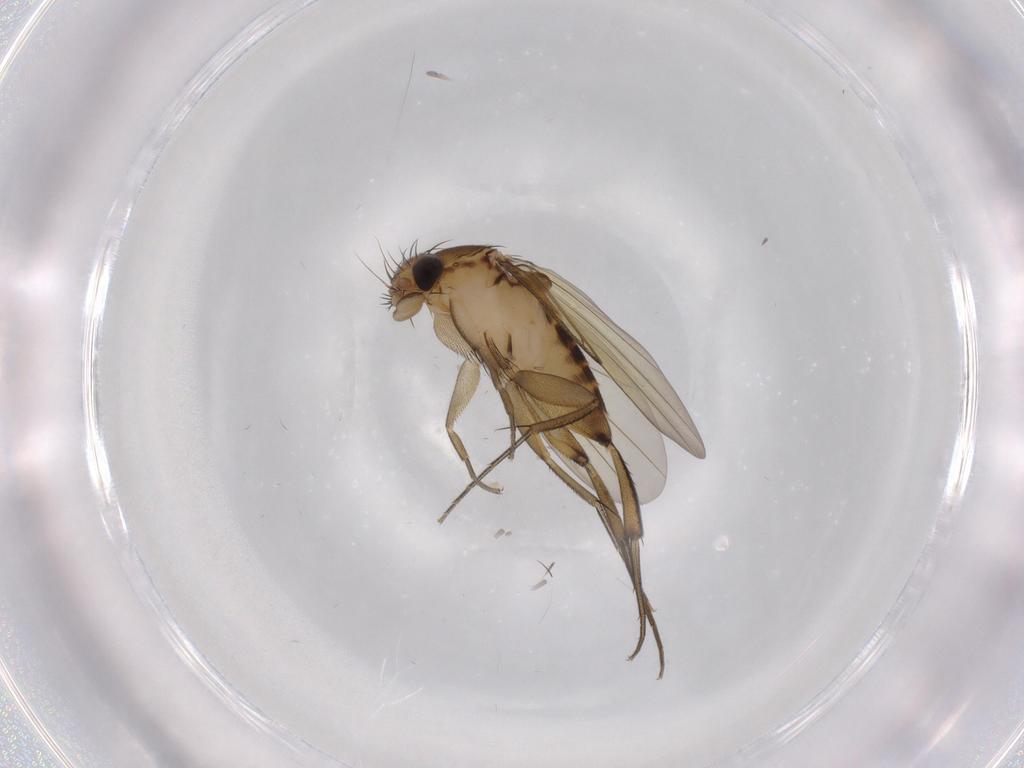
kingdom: Animalia
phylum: Arthropoda
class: Insecta
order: Diptera
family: Phoridae
